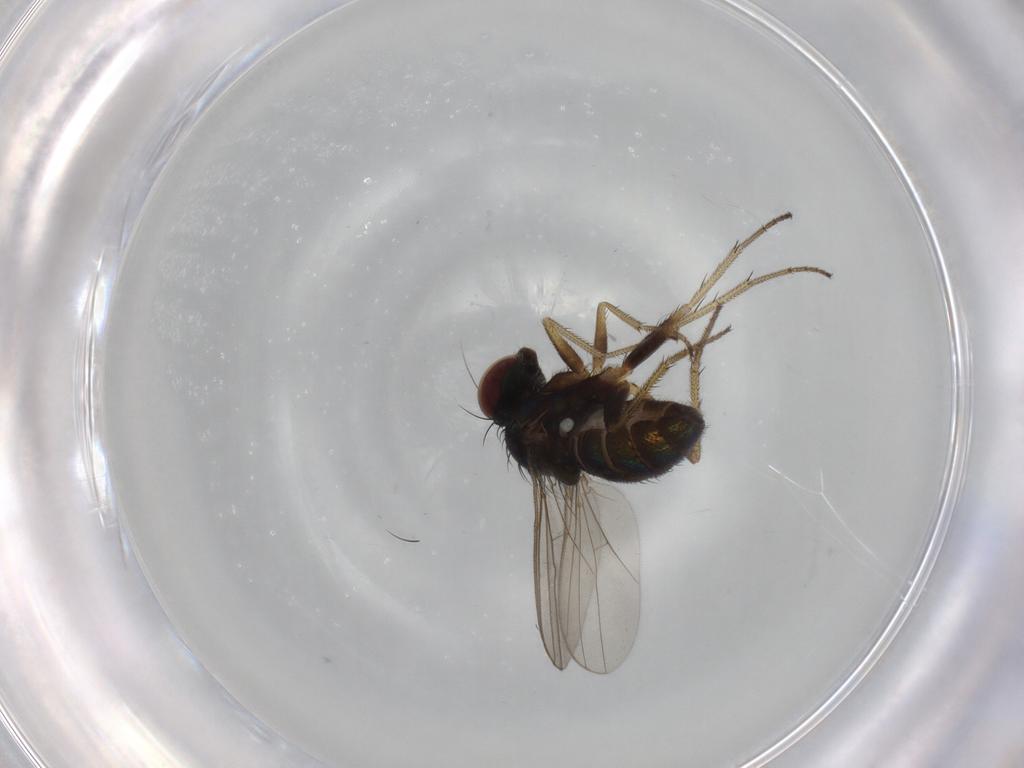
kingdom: Animalia
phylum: Arthropoda
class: Insecta
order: Diptera
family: Dolichopodidae
